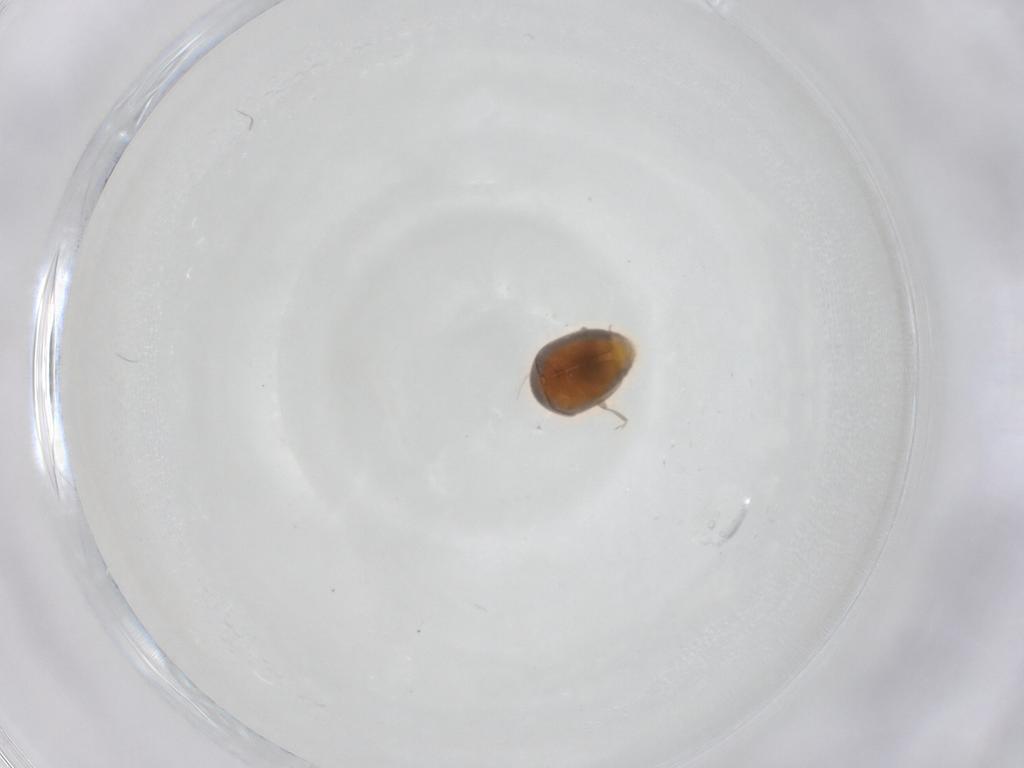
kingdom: Animalia
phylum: Arthropoda
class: Insecta
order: Coleoptera
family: Corylophidae
